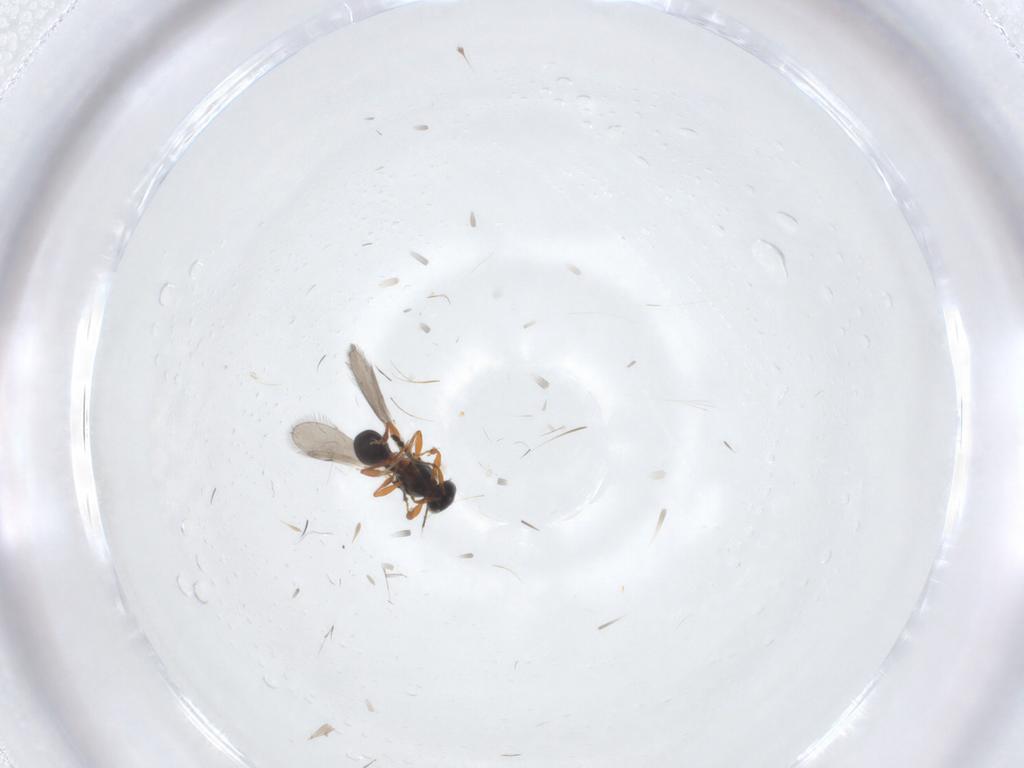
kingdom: Animalia
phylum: Arthropoda
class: Insecta
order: Hymenoptera
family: Platygastridae
